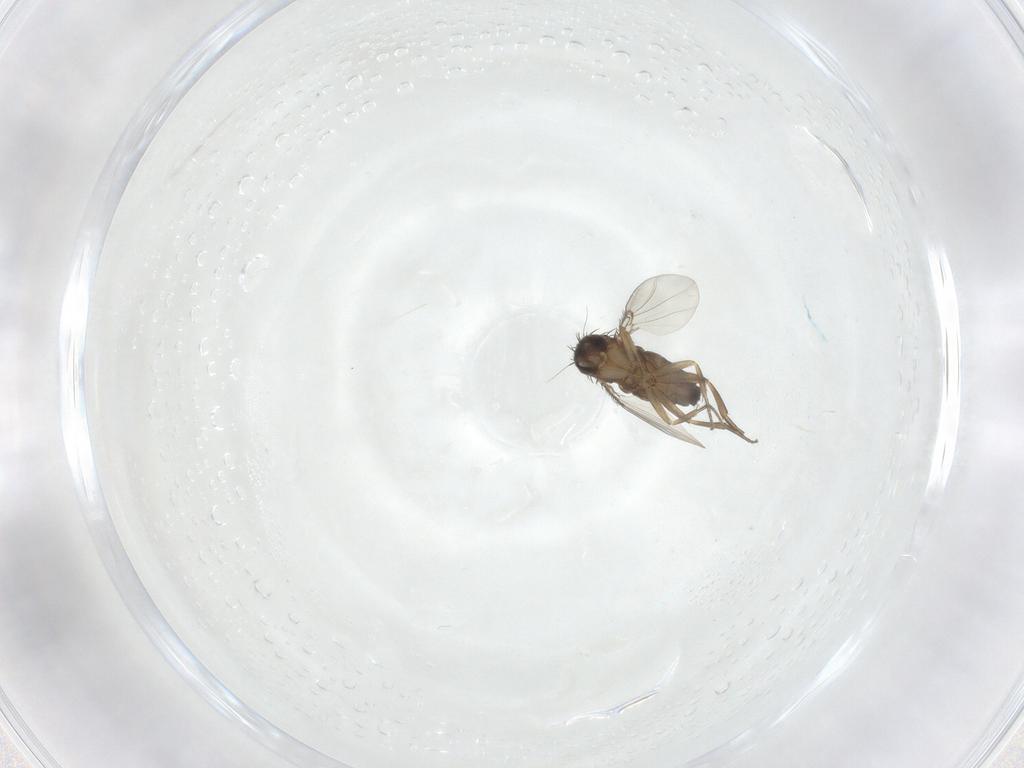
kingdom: Animalia
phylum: Arthropoda
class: Insecta
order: Diptera
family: Phoridae
